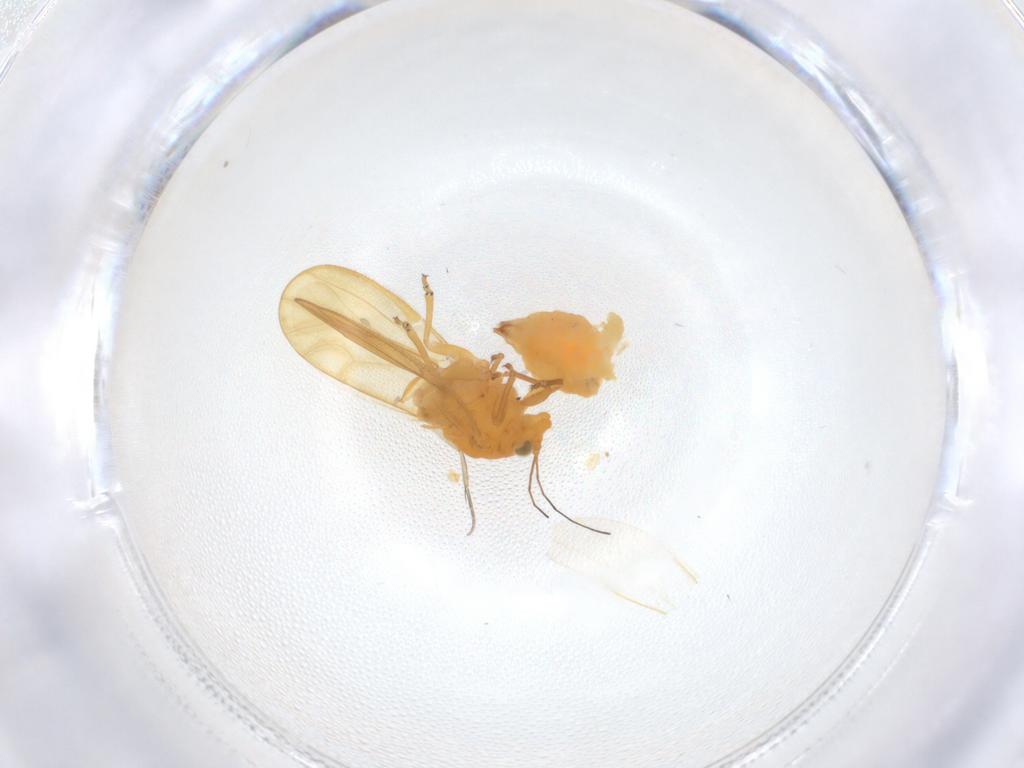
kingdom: Animalia
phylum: Arthropoda
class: Insecta
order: Hemiptera
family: Psyllidae
